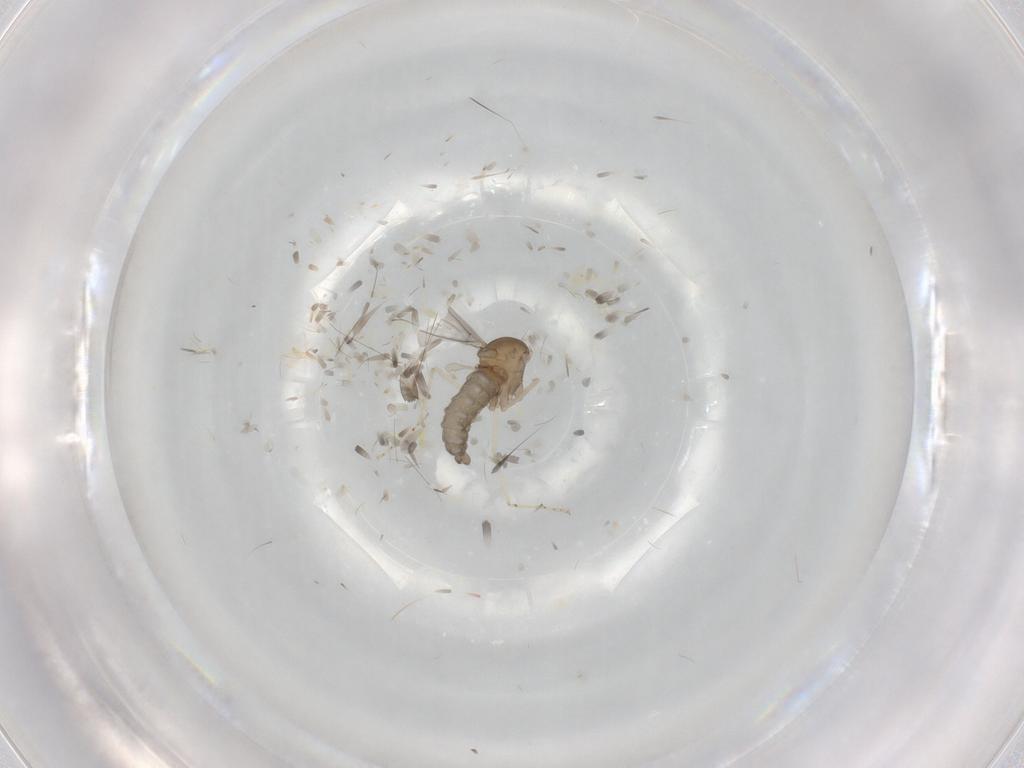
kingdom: Animalia
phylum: Arthropoda
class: Insecta
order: Diptera
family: Cecidomyiidae
